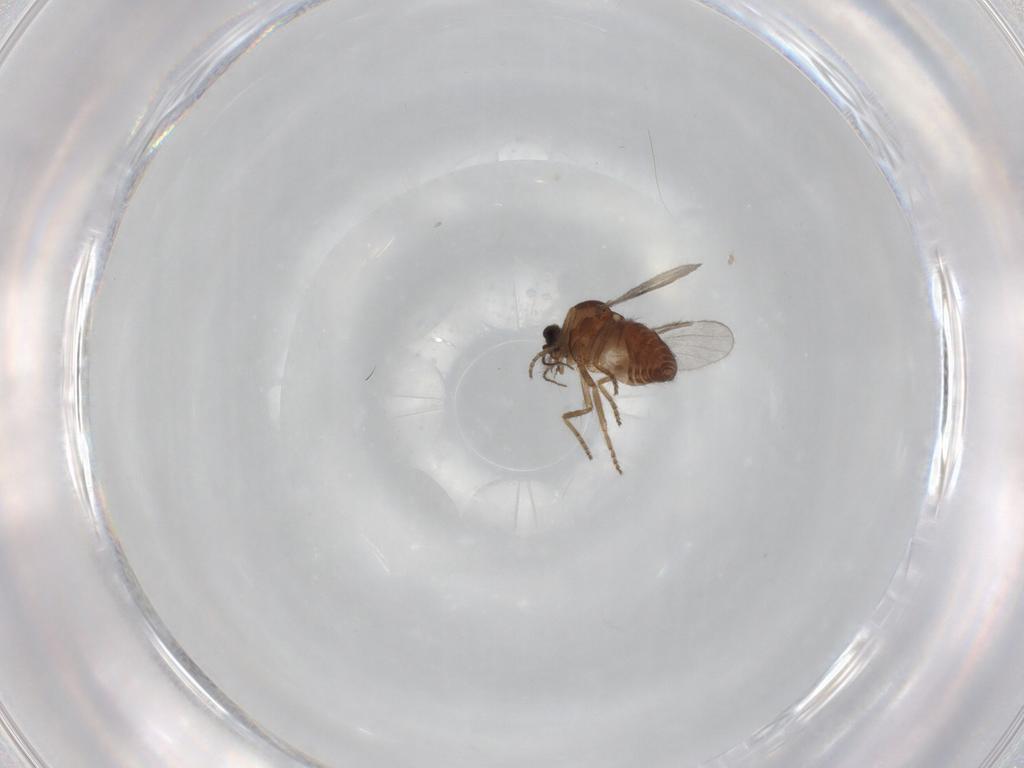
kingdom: Animalia
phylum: Arthropoda
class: Insecta
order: Diptera
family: Ceratopogonidae
